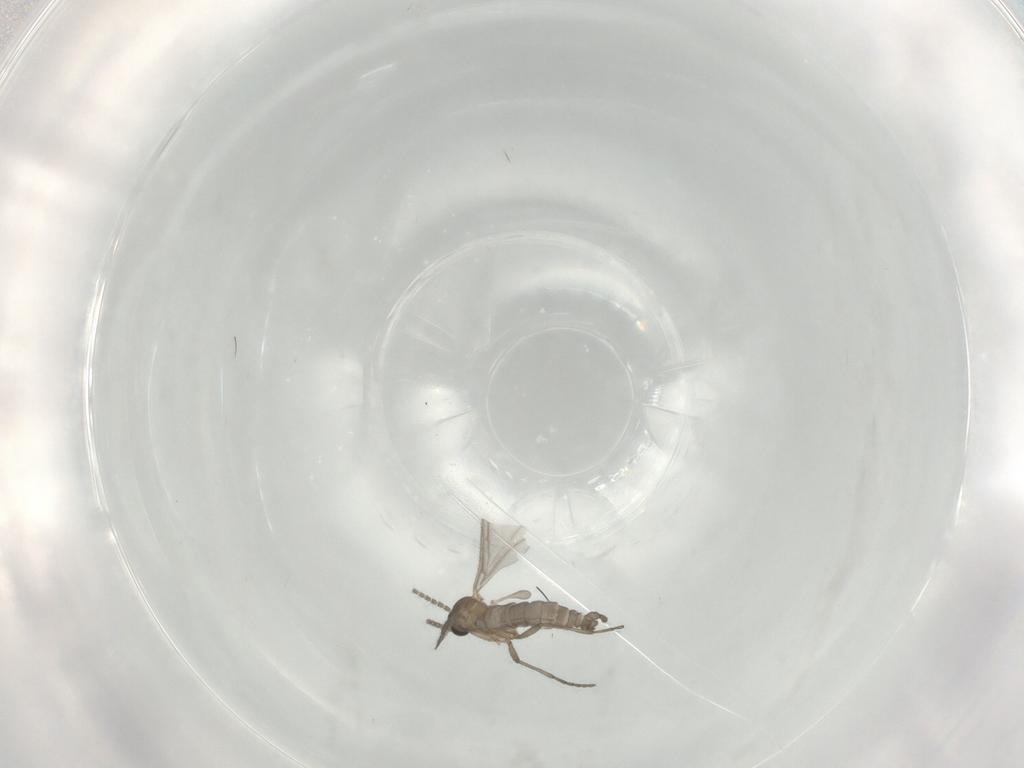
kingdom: Animalia
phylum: Arthropoda
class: Insecta
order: Diptera
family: Sciaridae
